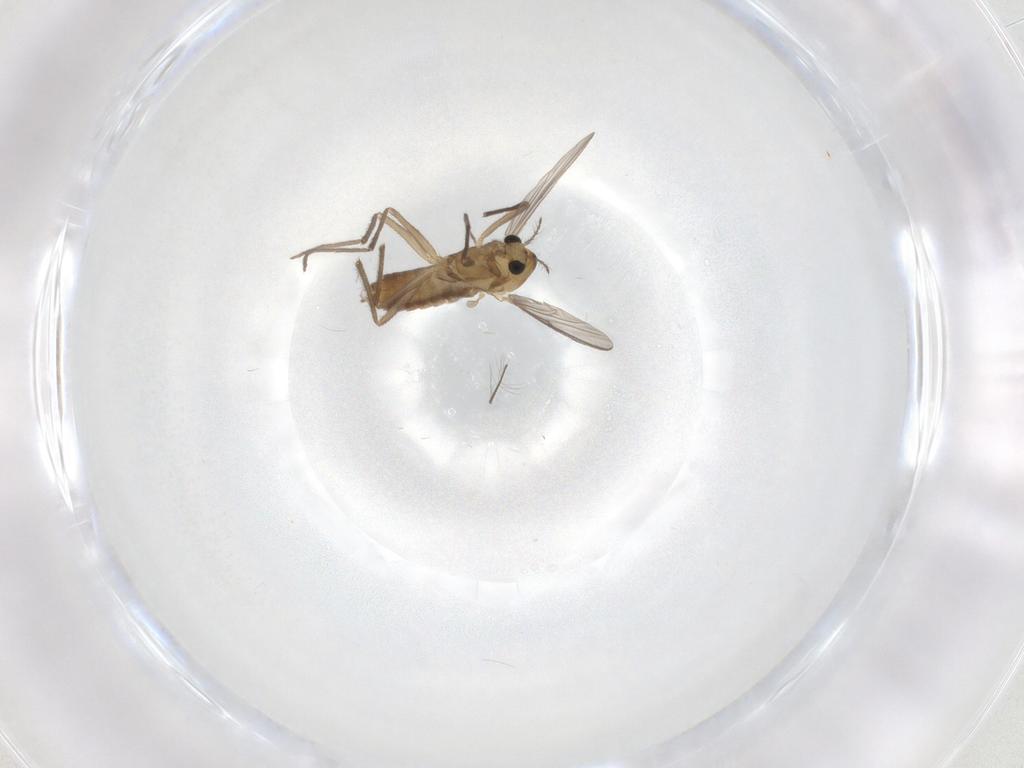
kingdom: Animalia
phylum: Arthropoda
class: Insecta
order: Diptera
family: Chironomidae
